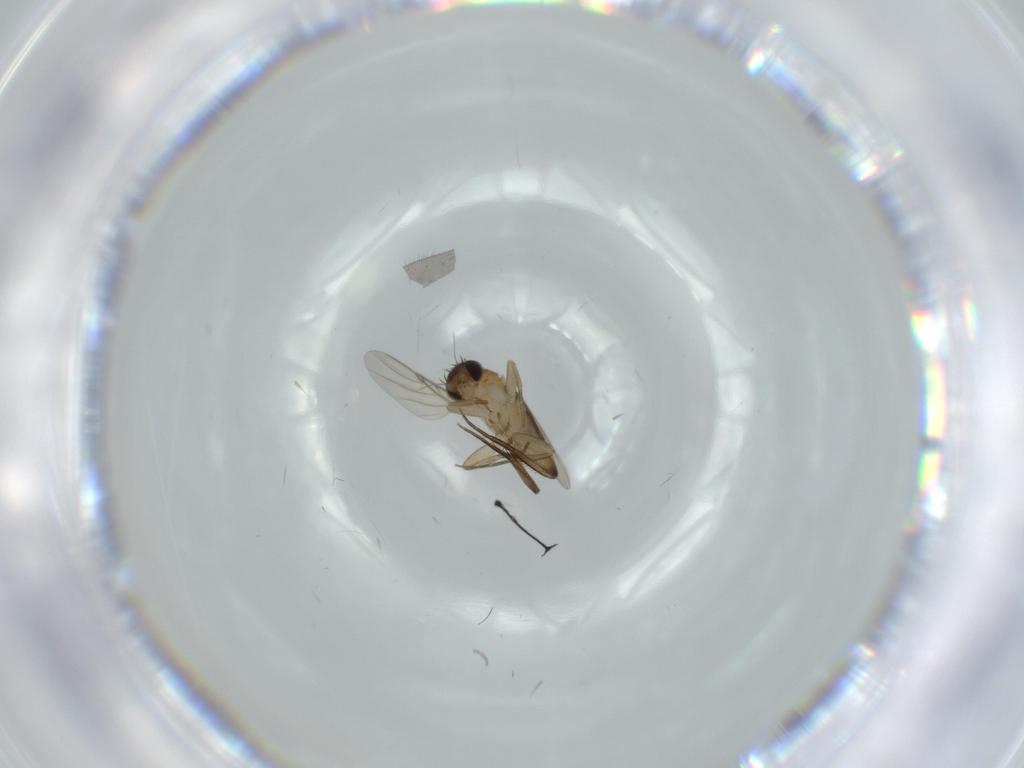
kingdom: Animalia
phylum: Arthropoda
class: Insecta
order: Diptera
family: Phoridae
